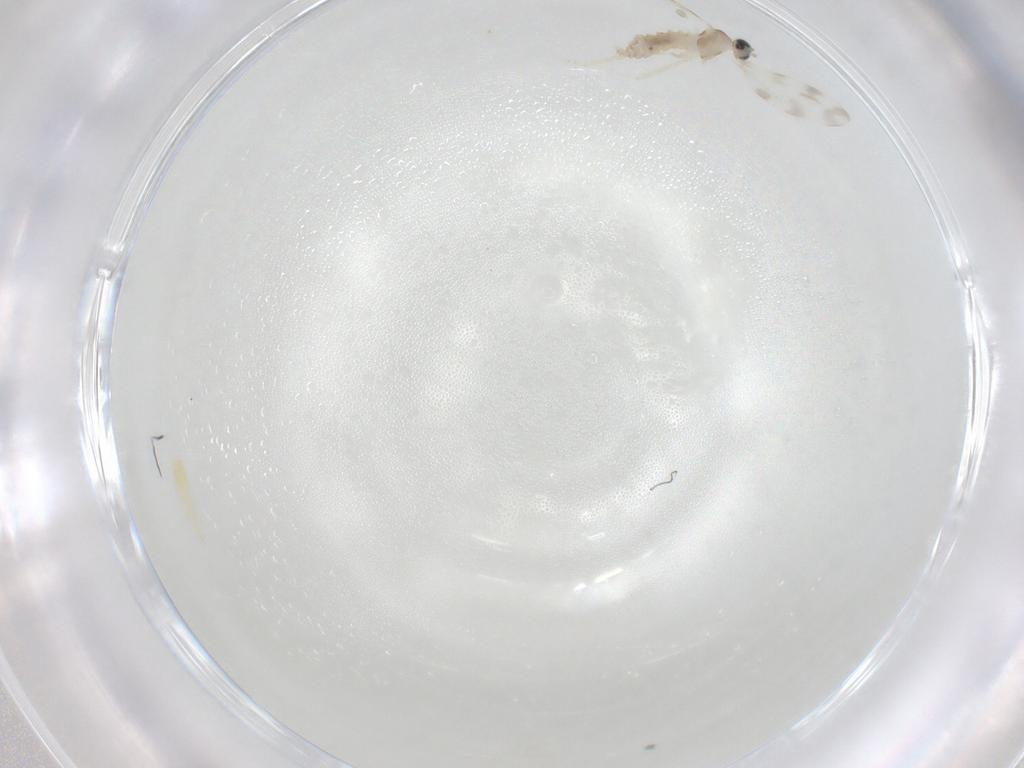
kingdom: Animalia
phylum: Arthropoda
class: Insecta
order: Diptera
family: Cecidomyiidae
